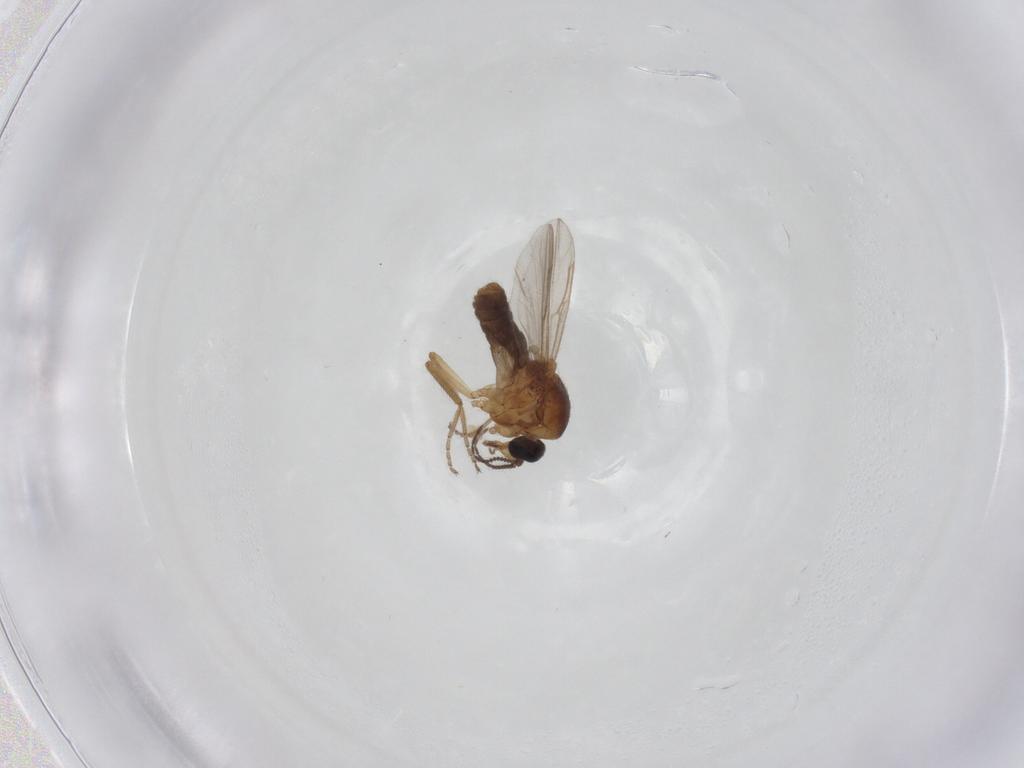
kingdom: Animalia
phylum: Arthropoda
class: Insecta
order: Diptera
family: Ceratopogonidae
